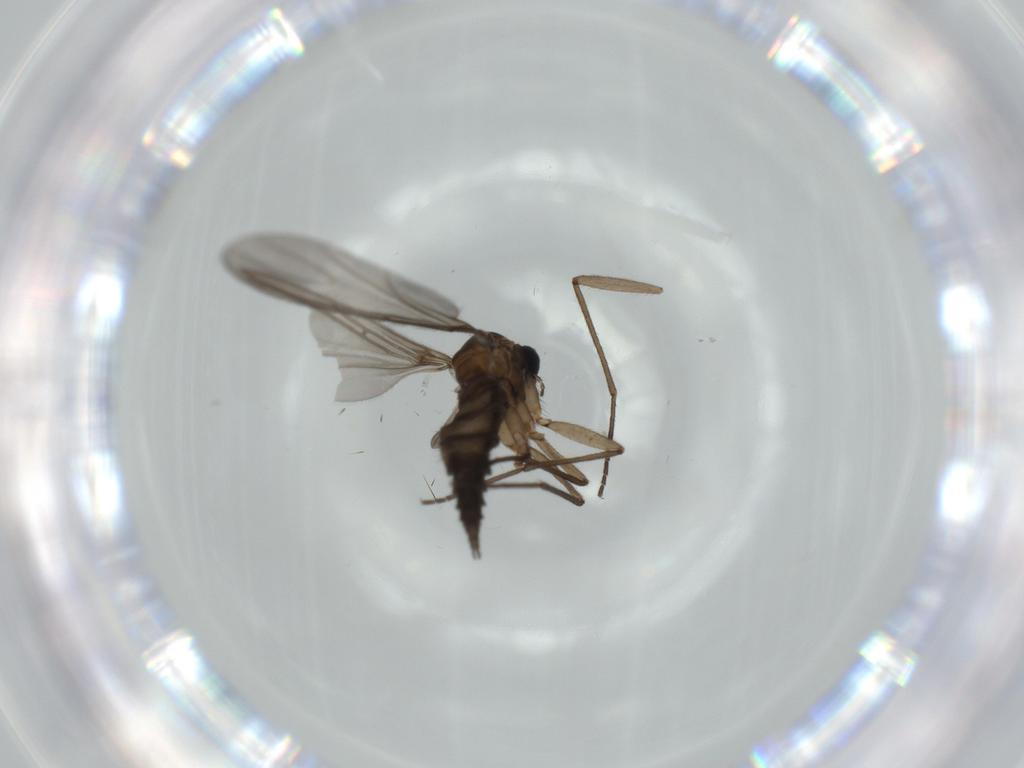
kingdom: Animalia
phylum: Arthropoda
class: Insecta
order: Diptera
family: Sciaridae
